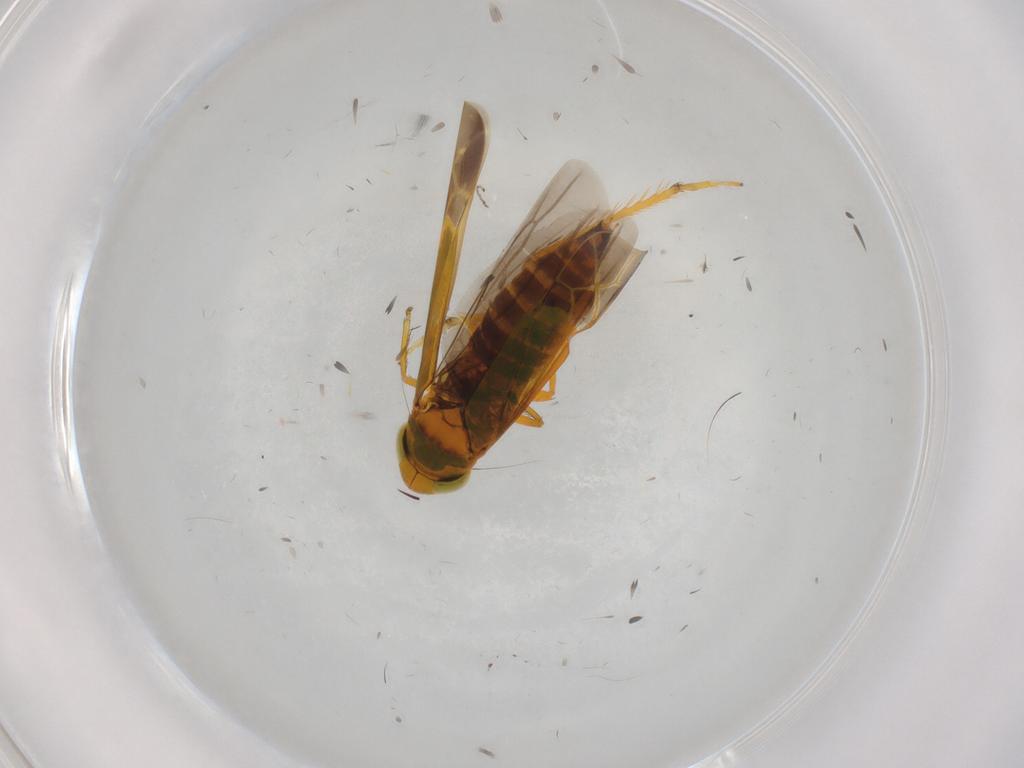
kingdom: Animalia
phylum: Arthropoda
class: Insecta
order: Hemiptera
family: Cicadellidae
